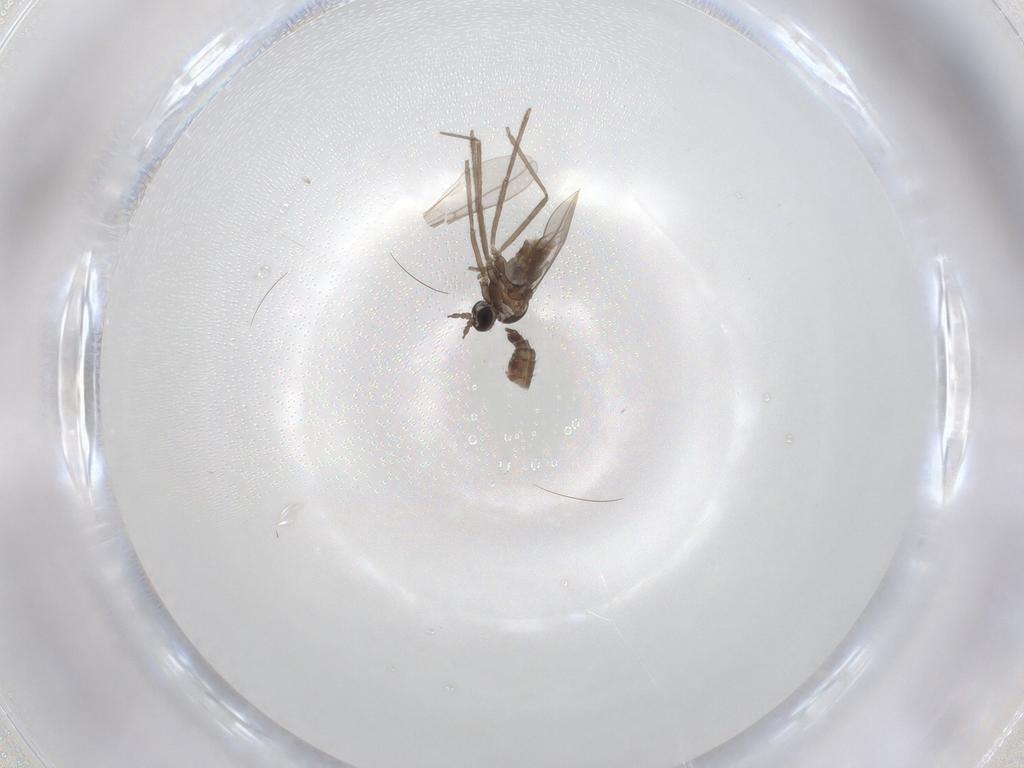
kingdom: Animalia
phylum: Arthropoda
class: Insecta
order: Diptera
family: Cecidomyiidae
